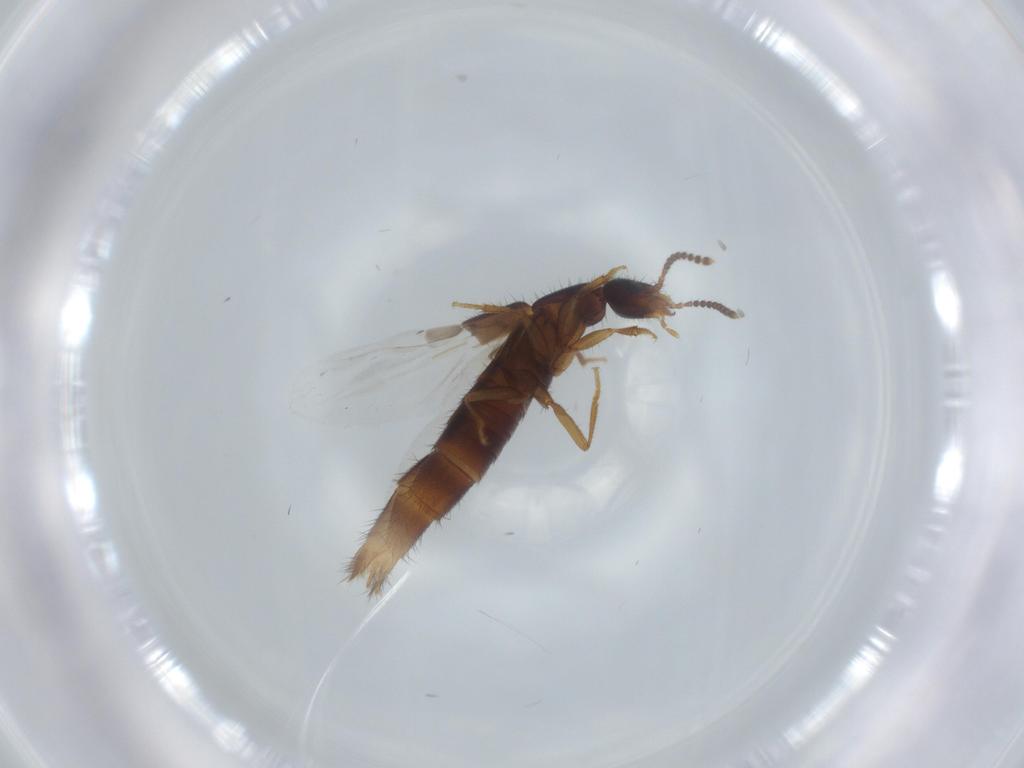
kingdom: Animalia
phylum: Arthropoda
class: Insecta
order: Coleoptera
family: Staphylinidae
